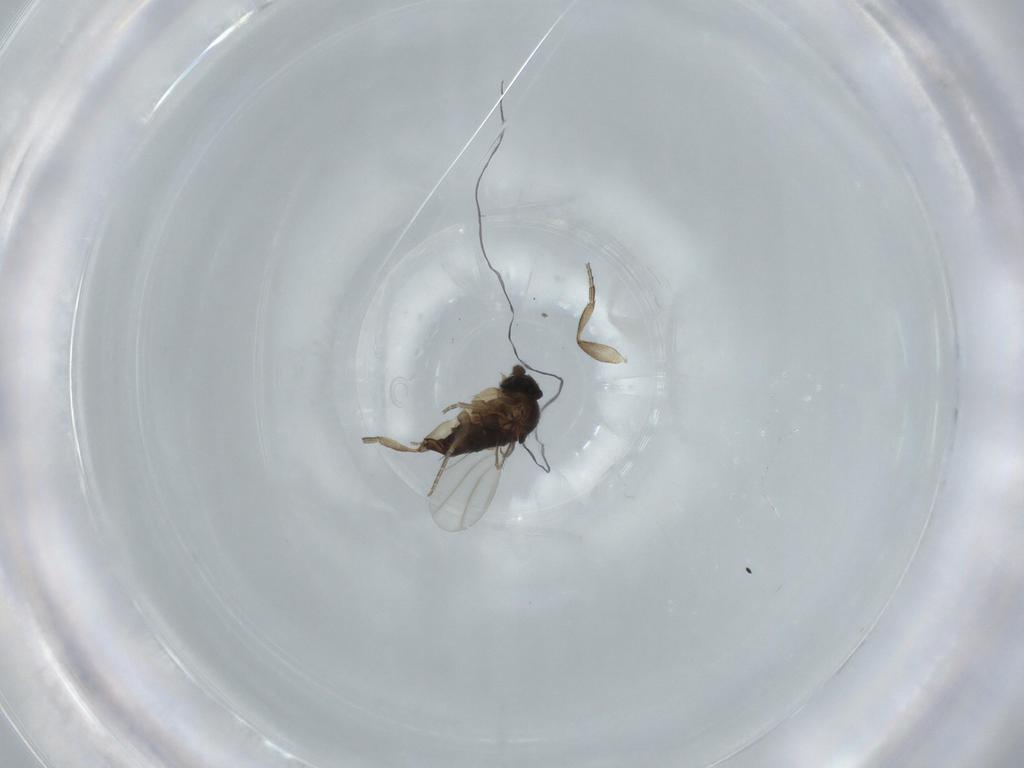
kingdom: Animalia
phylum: Arthropoda
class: Insecta
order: Diptera
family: Phoridae
